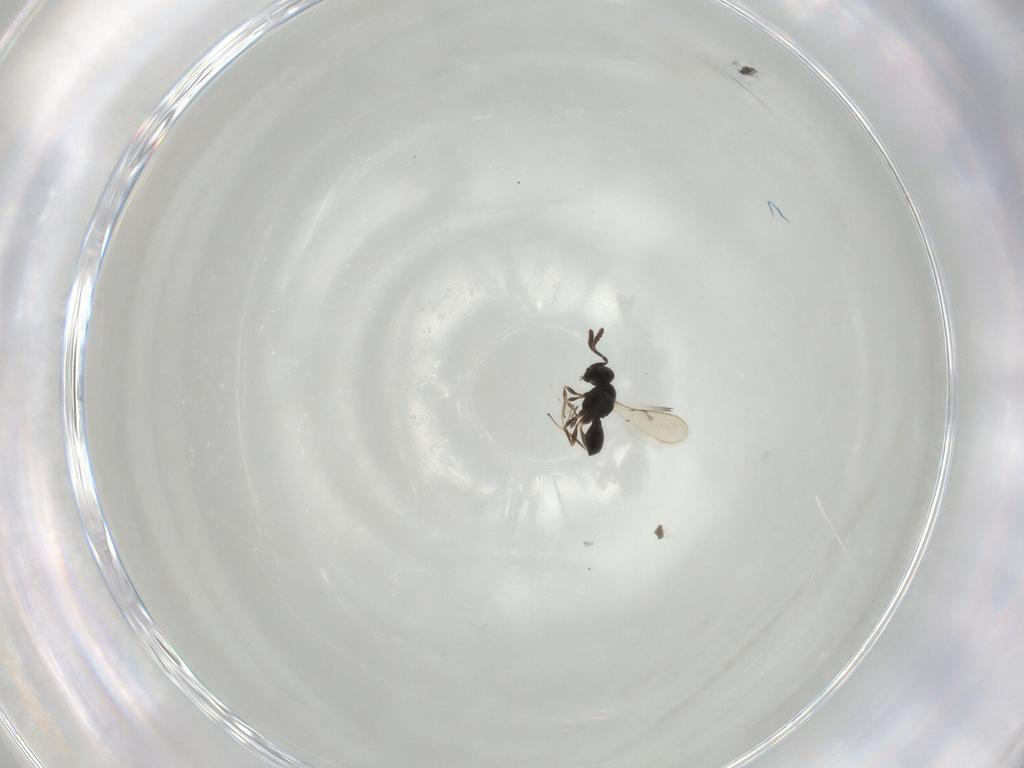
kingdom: Animalia
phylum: Arthropoda
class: Insecta
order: Hymenoptera
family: Scelionidae
